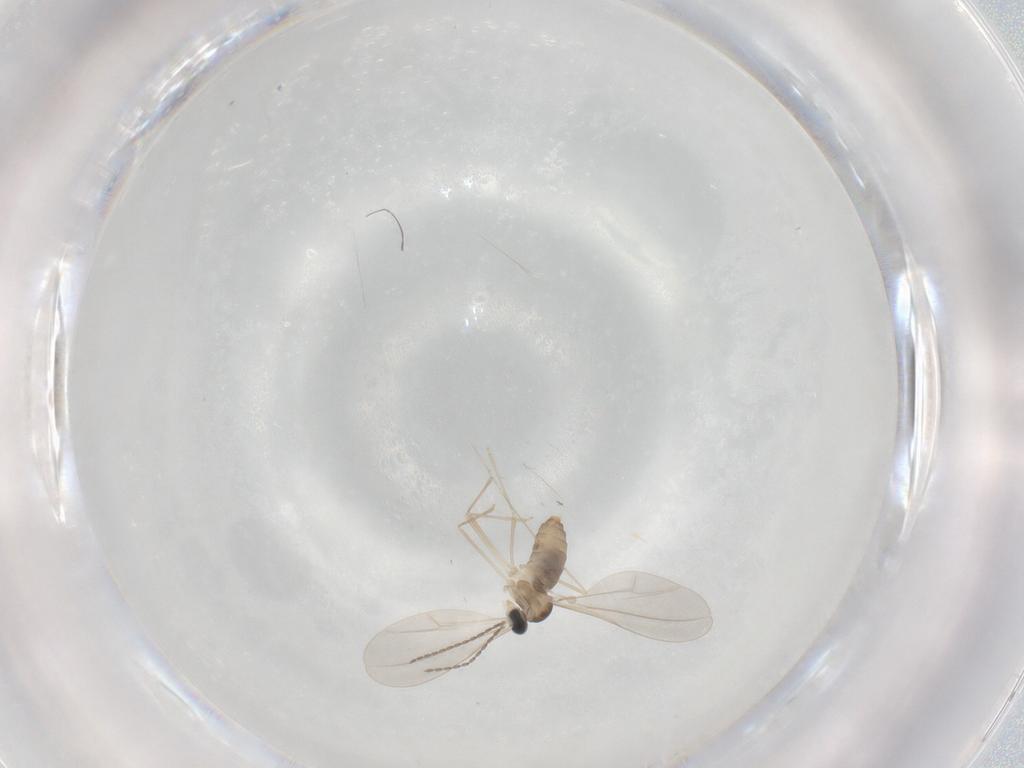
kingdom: Animalia
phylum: Arthropoda
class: Insecta
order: Diptera
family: Cecidomyiidae
